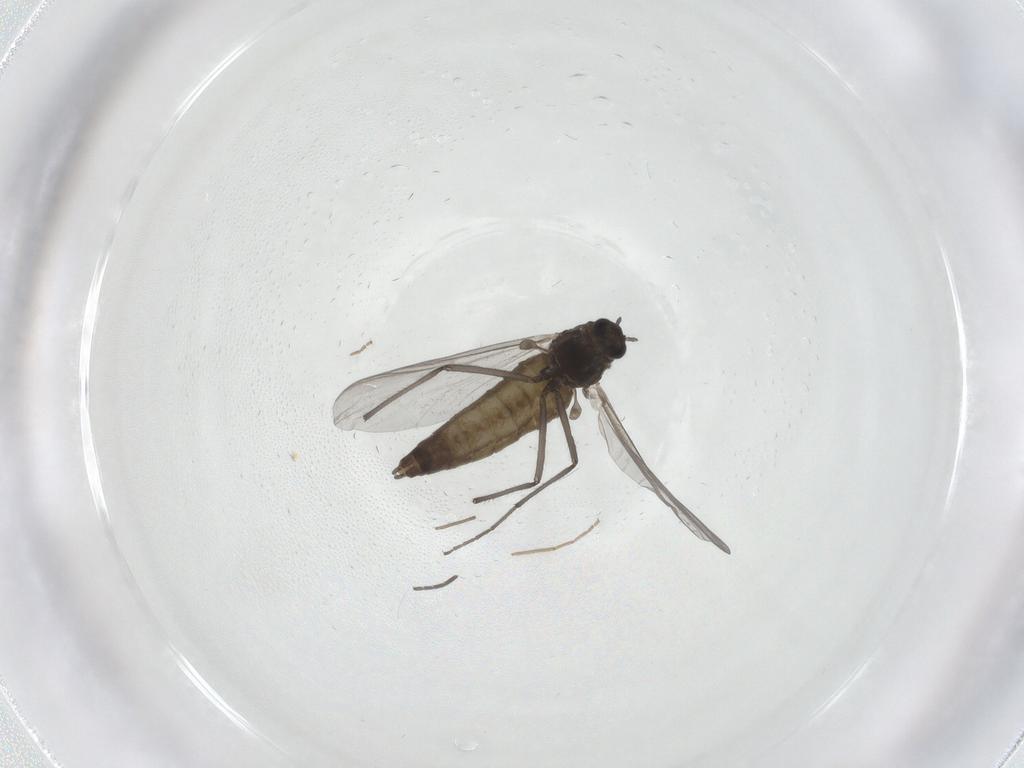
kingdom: Animalia
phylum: Arthropoda
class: Insecta
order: Diptera
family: Chironomidae
